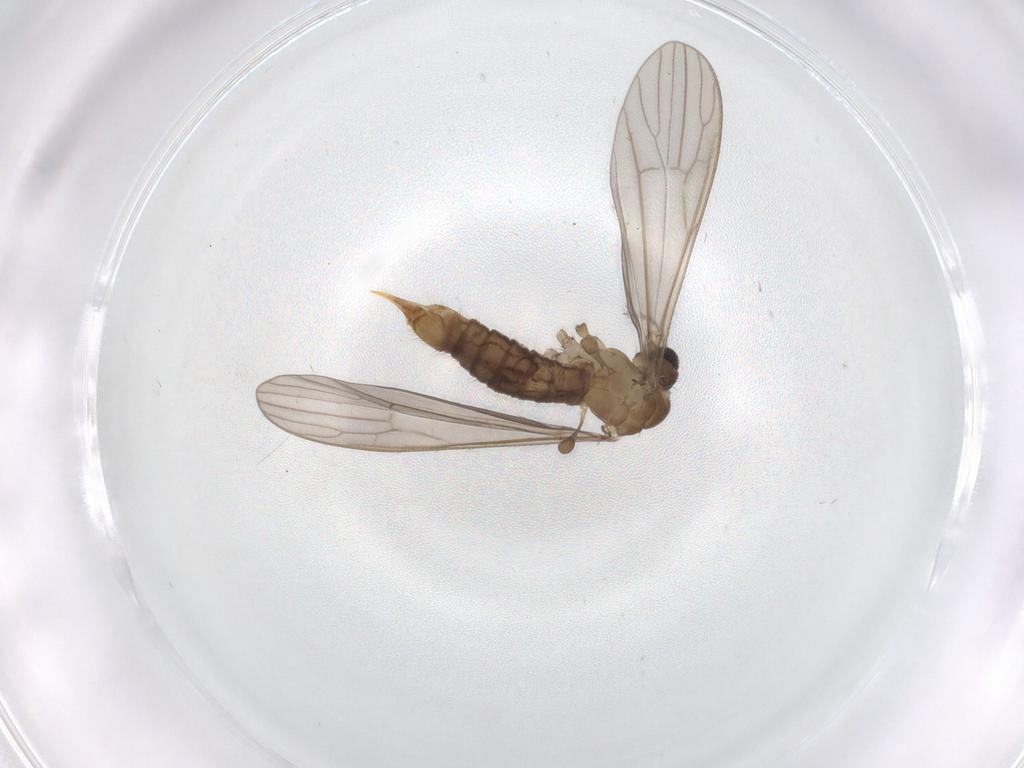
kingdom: Animalia
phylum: Arthropoda
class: Insecta
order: Diptera
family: Limoniidae
